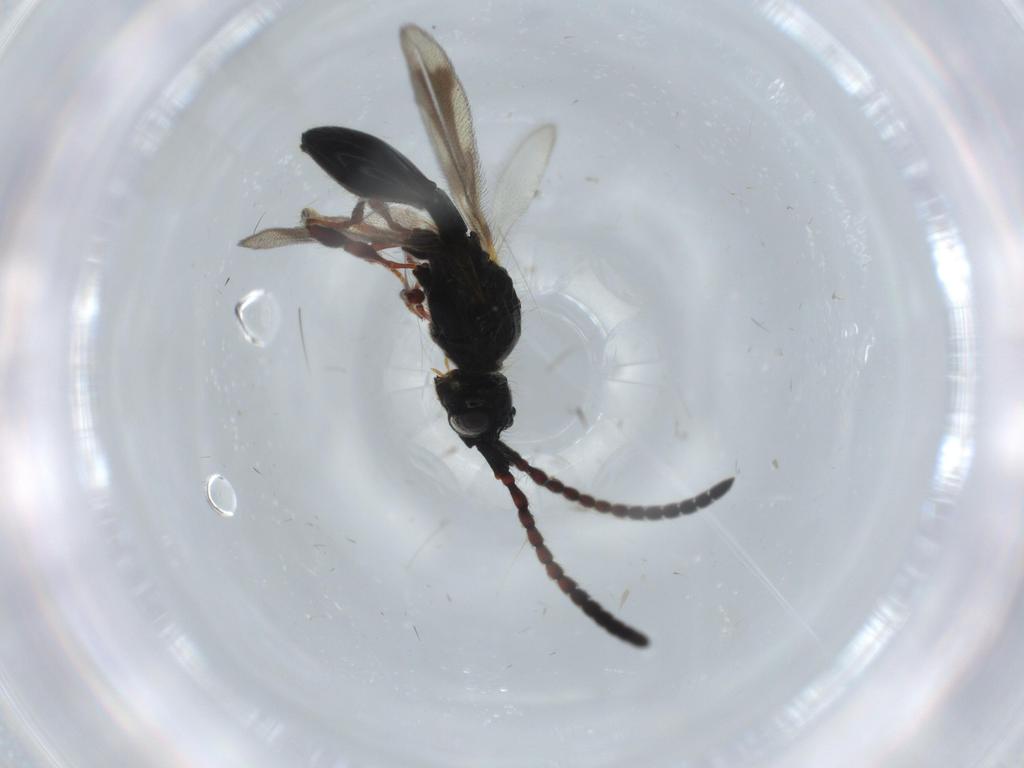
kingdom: Animalia
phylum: Arthropoda
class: Insecta
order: Hymenoptera
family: Diapriidae
